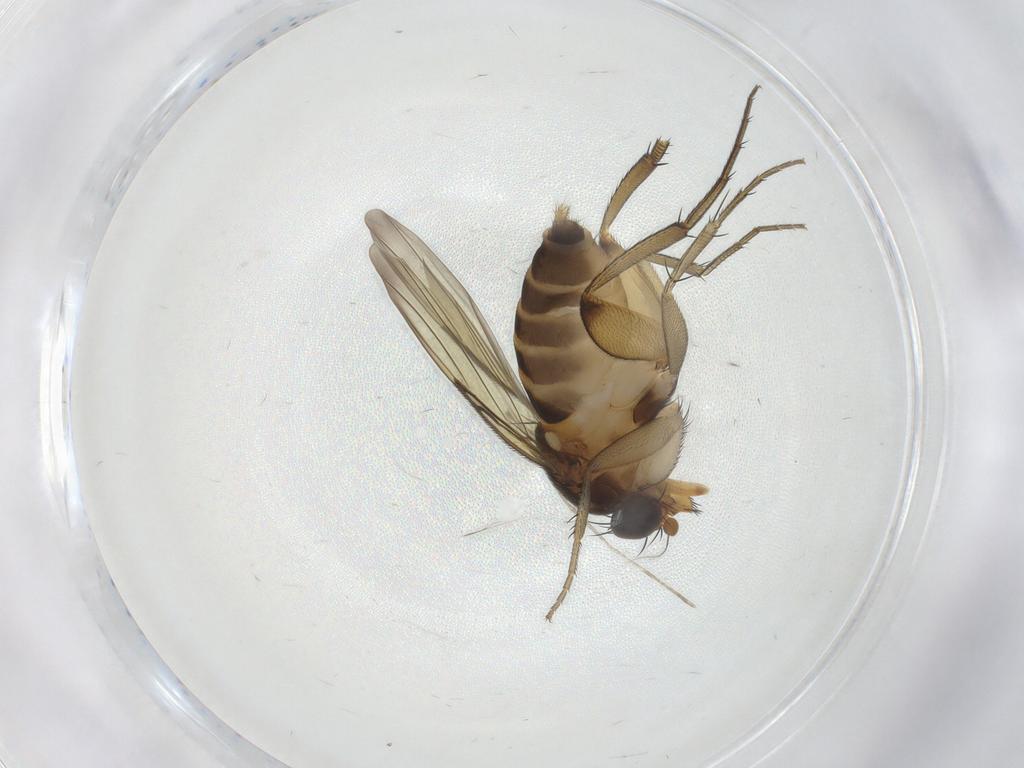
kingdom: Animalia
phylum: Arthropoda
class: Insecta
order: Diptera
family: Phoridae
